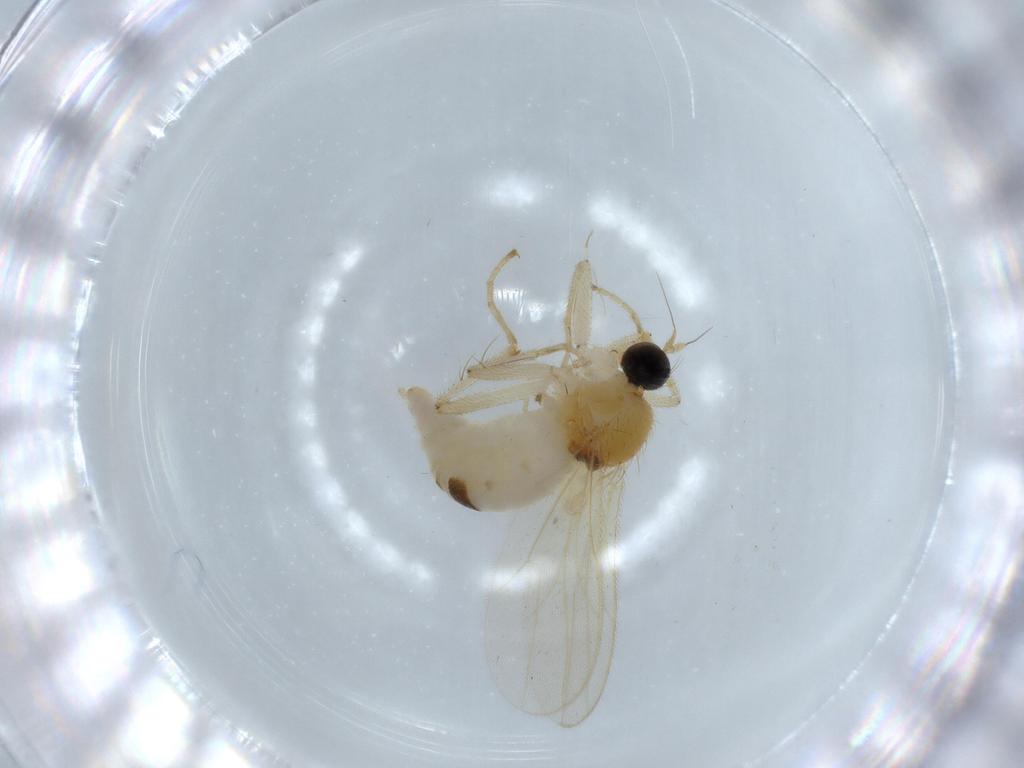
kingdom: Animalia
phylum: Arthropoda
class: Insecta
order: Diptera
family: Hybotidae
